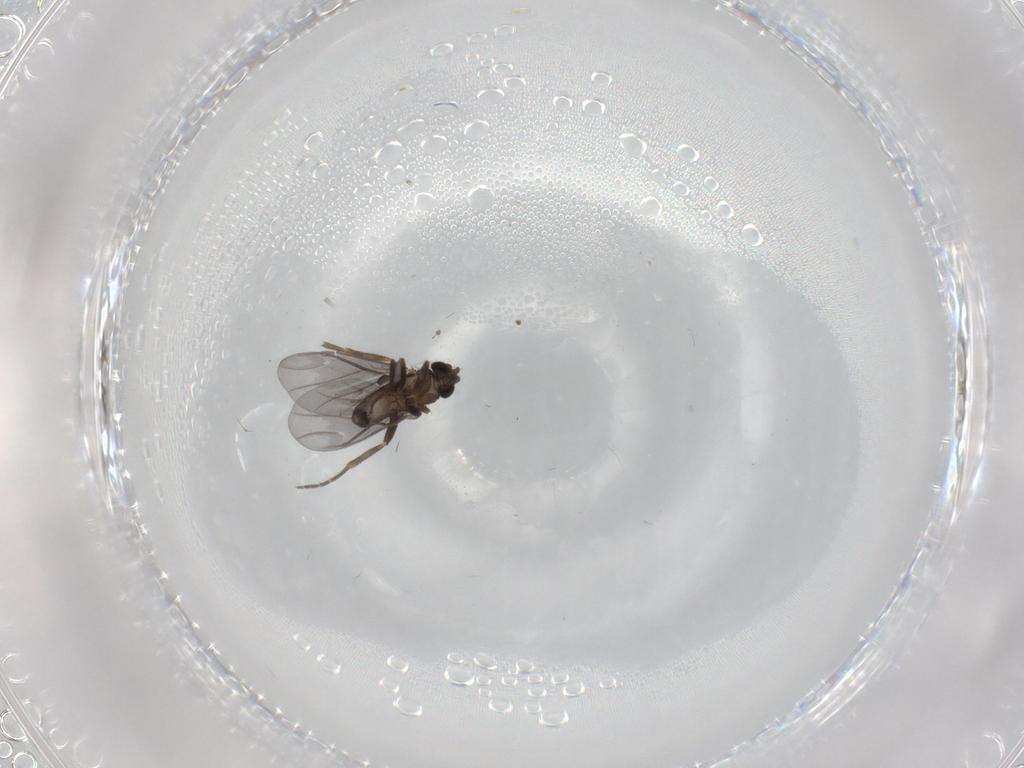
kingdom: Animalia
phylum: Arthropoda
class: Insecta
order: Diptera
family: Phoridae
